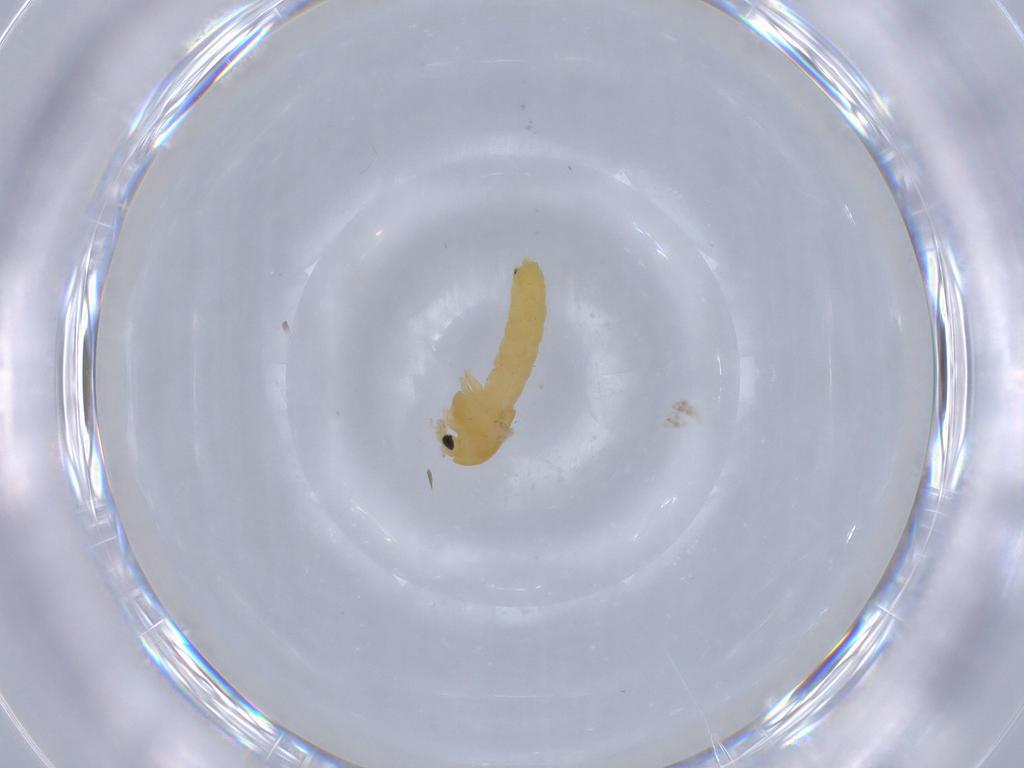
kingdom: Animalia
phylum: Arthropoda
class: Insecta
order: Diptera
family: Chironomidae
